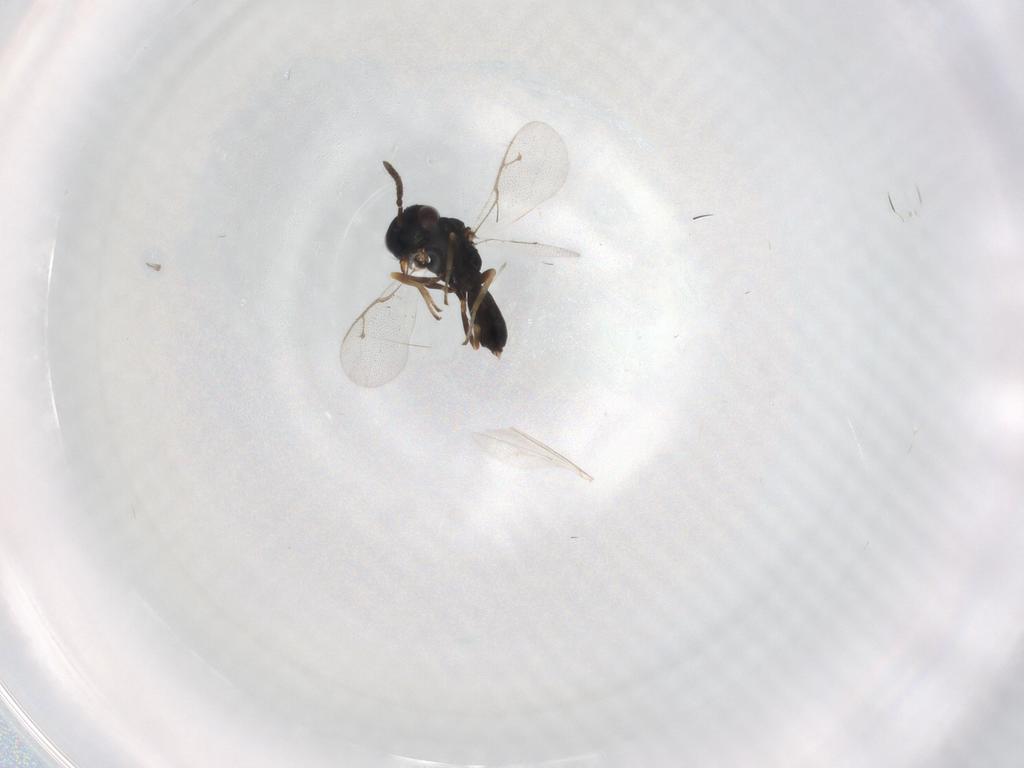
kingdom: Animalia
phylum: Arthropoda
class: Insecta
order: Hymenoptera
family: Pteromalidae
